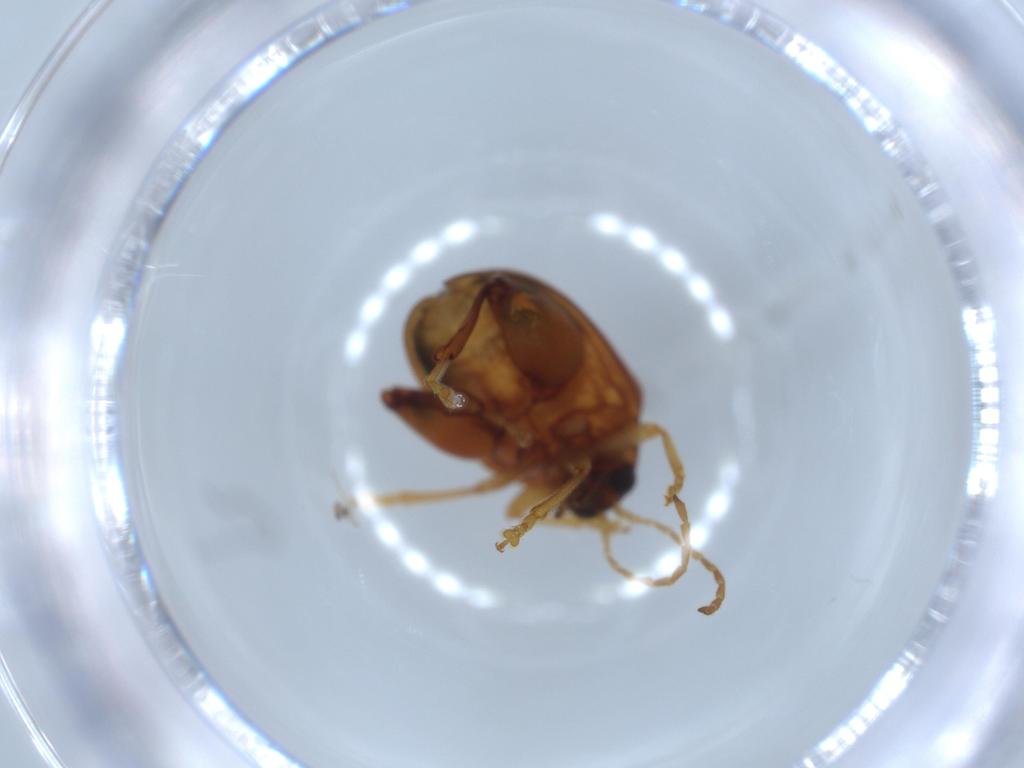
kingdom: Animalia
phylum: Arthropoda
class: Insecta
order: Coleoptera
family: Chrysomelidae
